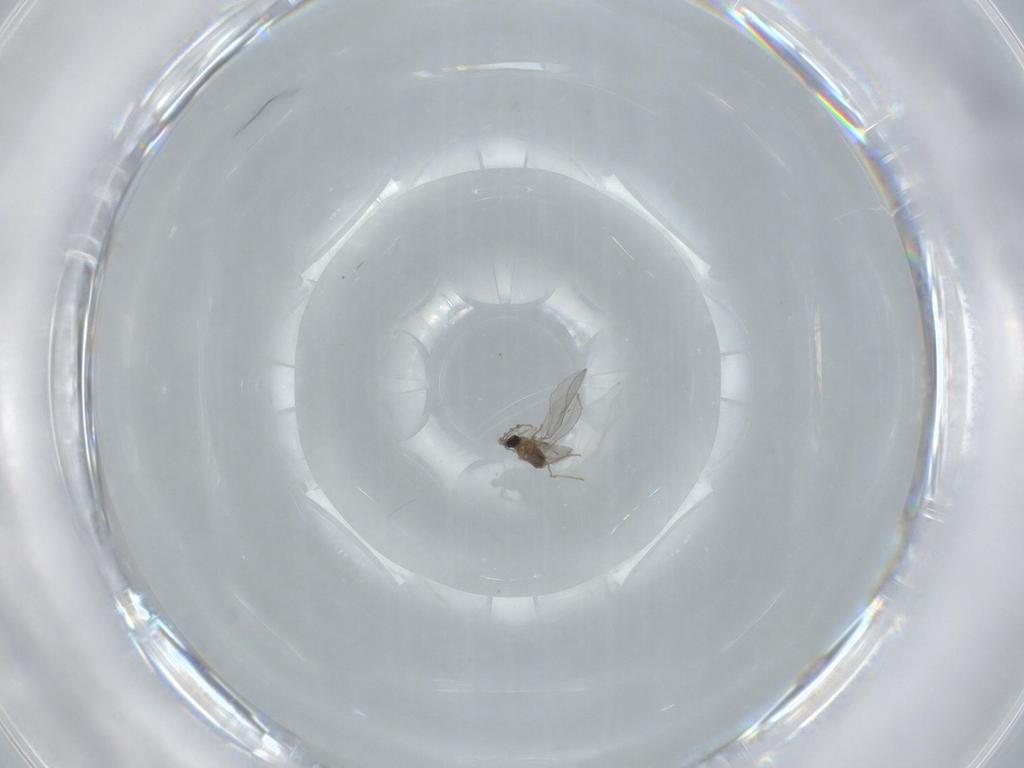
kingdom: Animalia
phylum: Arthropoda
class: Insecta
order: Diptera
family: Cecidomyiidae
